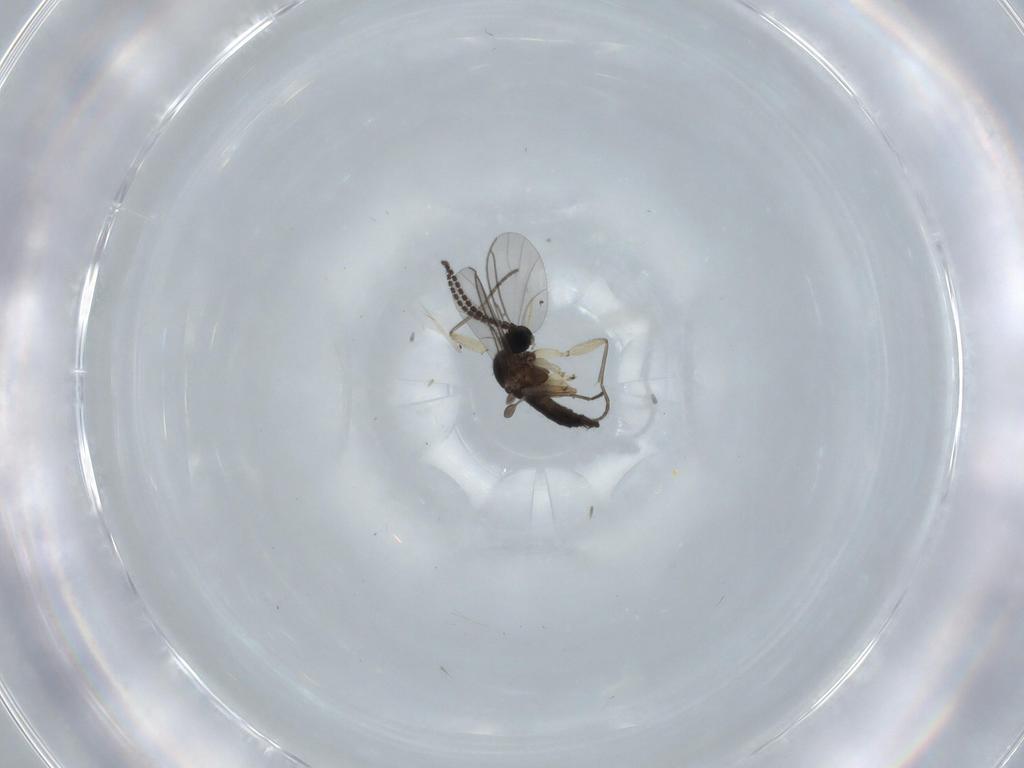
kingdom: Animalia
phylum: Arthropoda
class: Insecta
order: Diptera
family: Sciaridae
